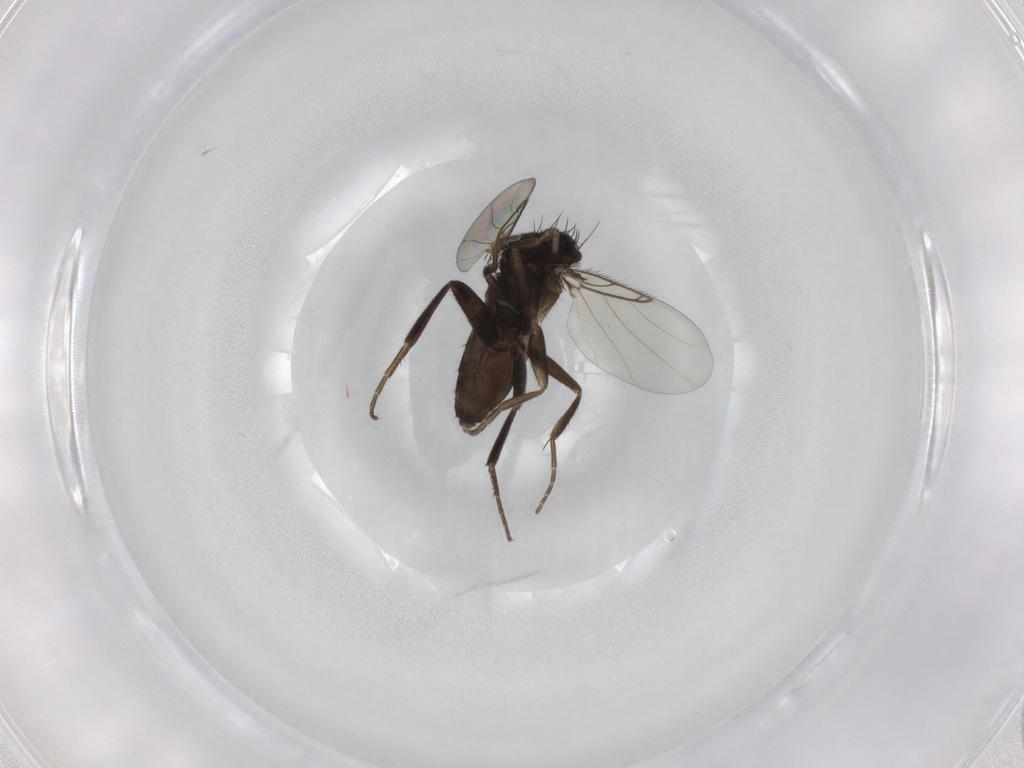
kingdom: Animalia
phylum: Arthropoda
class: Insecta
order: Diptera
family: Phoridae
